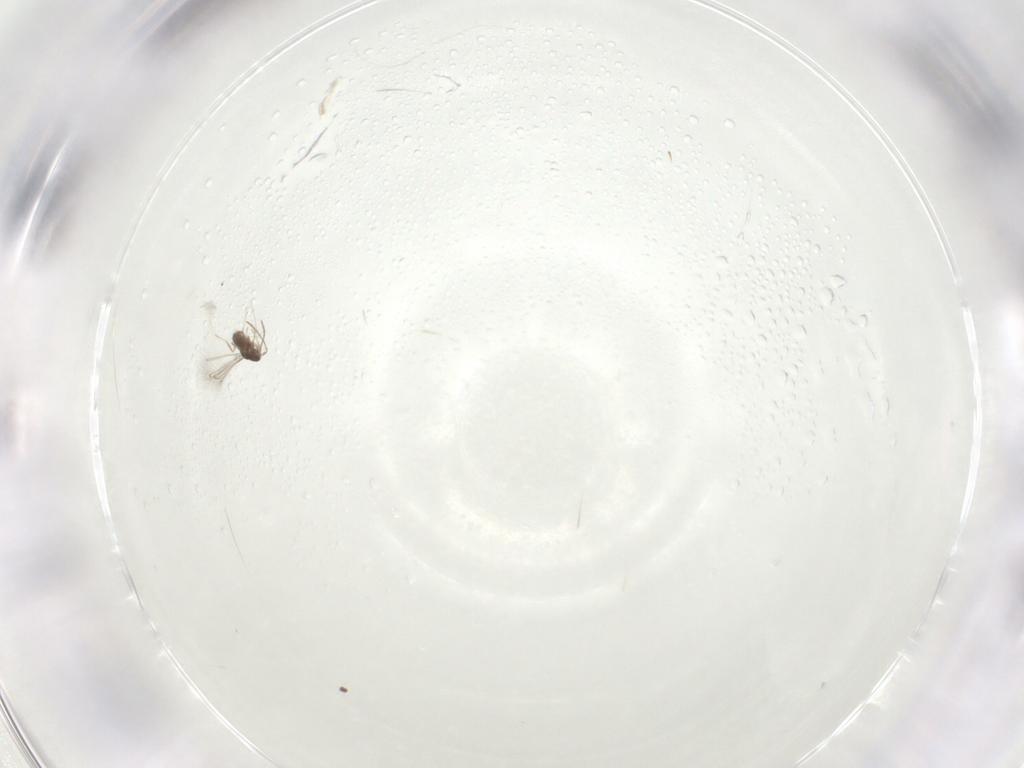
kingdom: Animalia
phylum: Arthropoda
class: Insecta
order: Hymenoptera
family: Mymaridae
